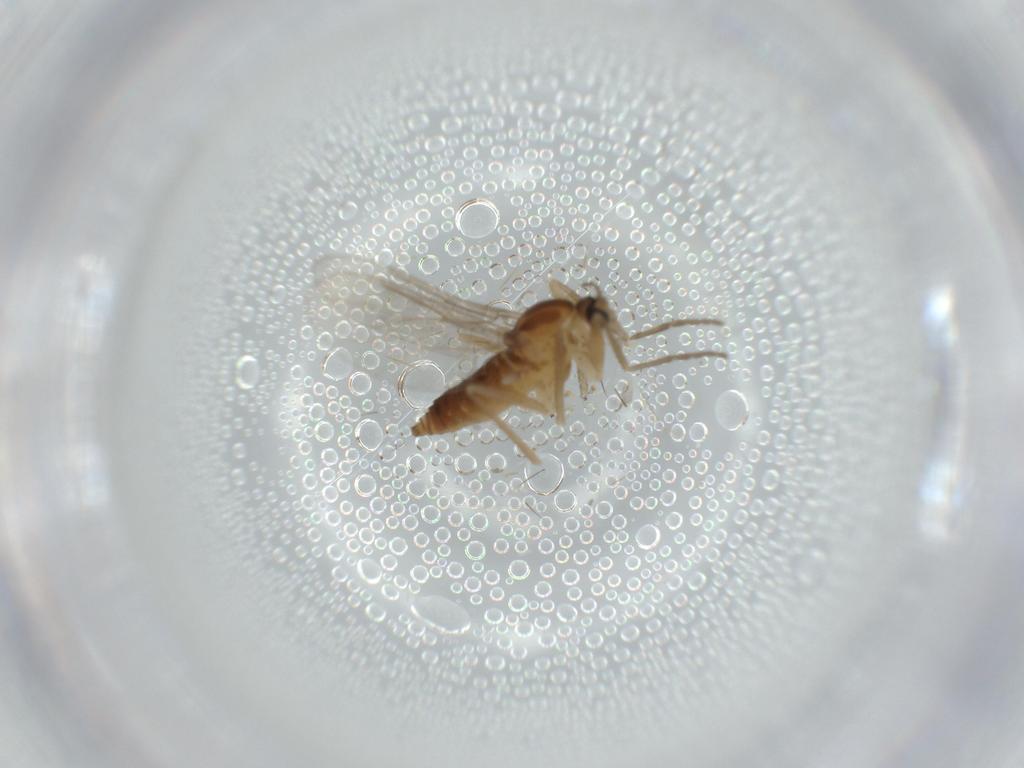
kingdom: Animalia
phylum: Arthropoda
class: Insecta
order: Diptera
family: Cecidomyiidae
